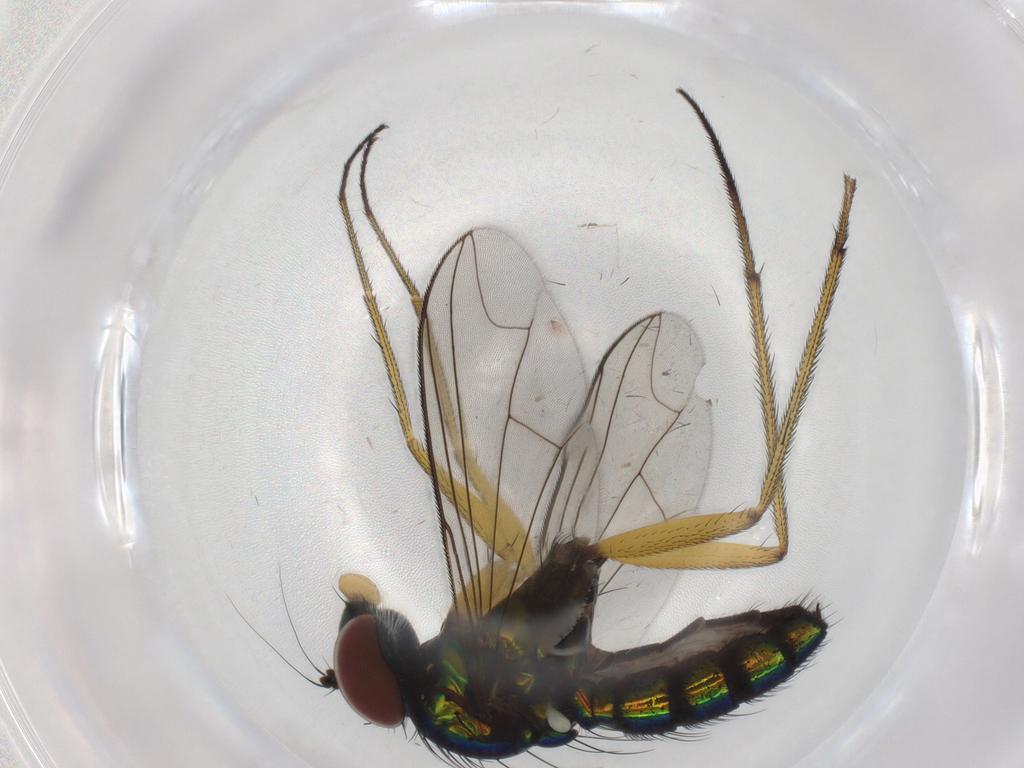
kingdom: Animalia
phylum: Arthropoda
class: Insecta
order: Diptera
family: Dolichopodidae
